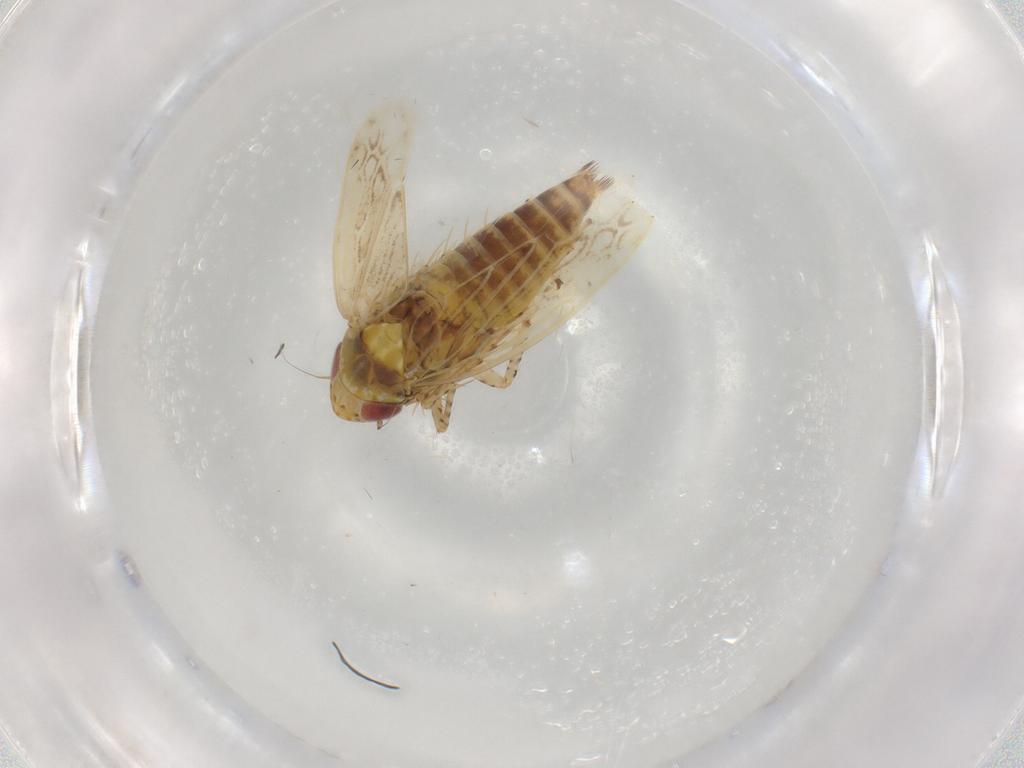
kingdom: Animalia
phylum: Arthropoda
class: Insecta
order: Hemiptera
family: Cicadellidae
